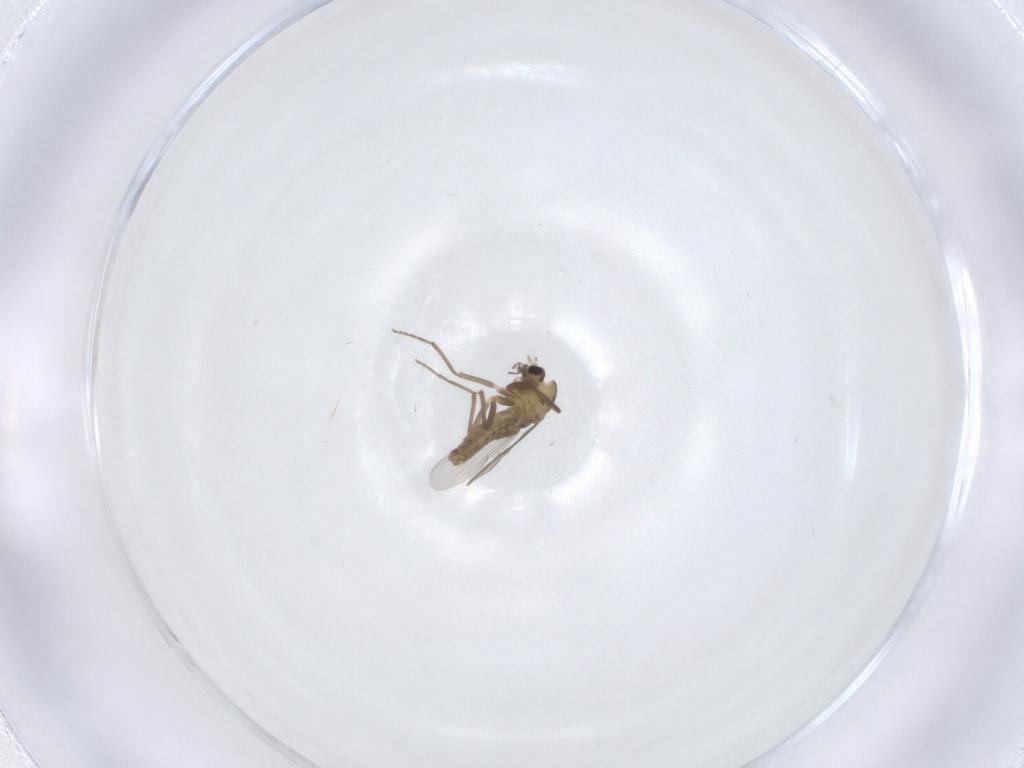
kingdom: Animalia
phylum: Arthropoda
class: Insecta
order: Diptera
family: Chironomidae
